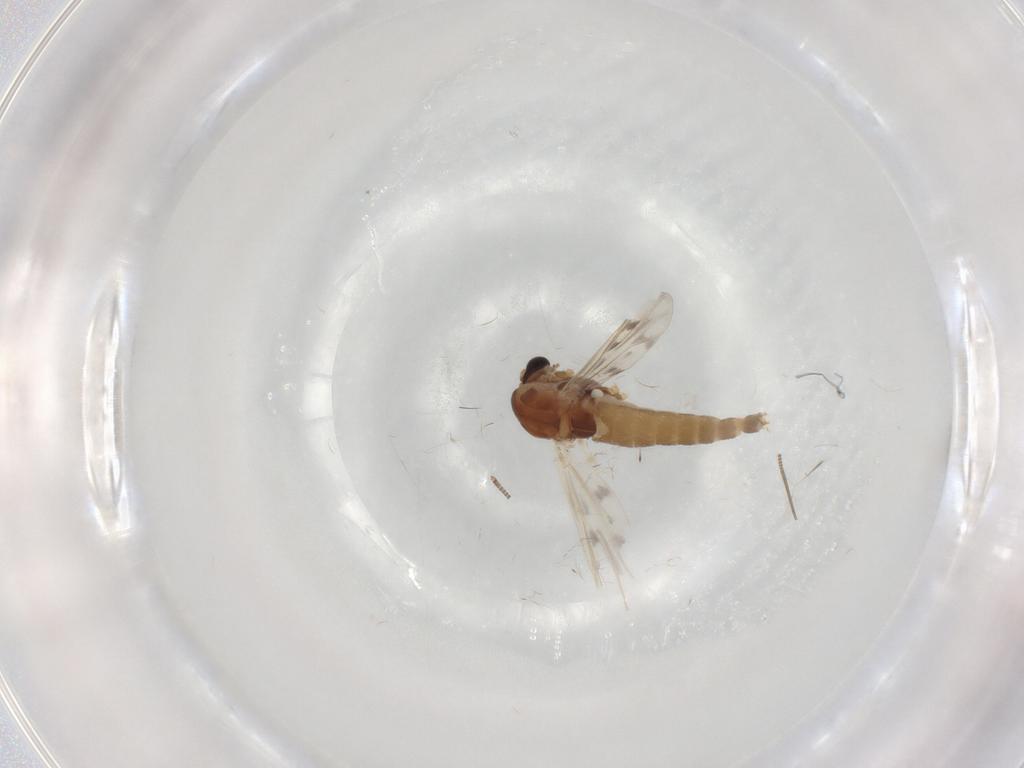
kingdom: Animalia
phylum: Arthropoda
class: Insecta
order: Diptera
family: Chironomidae
